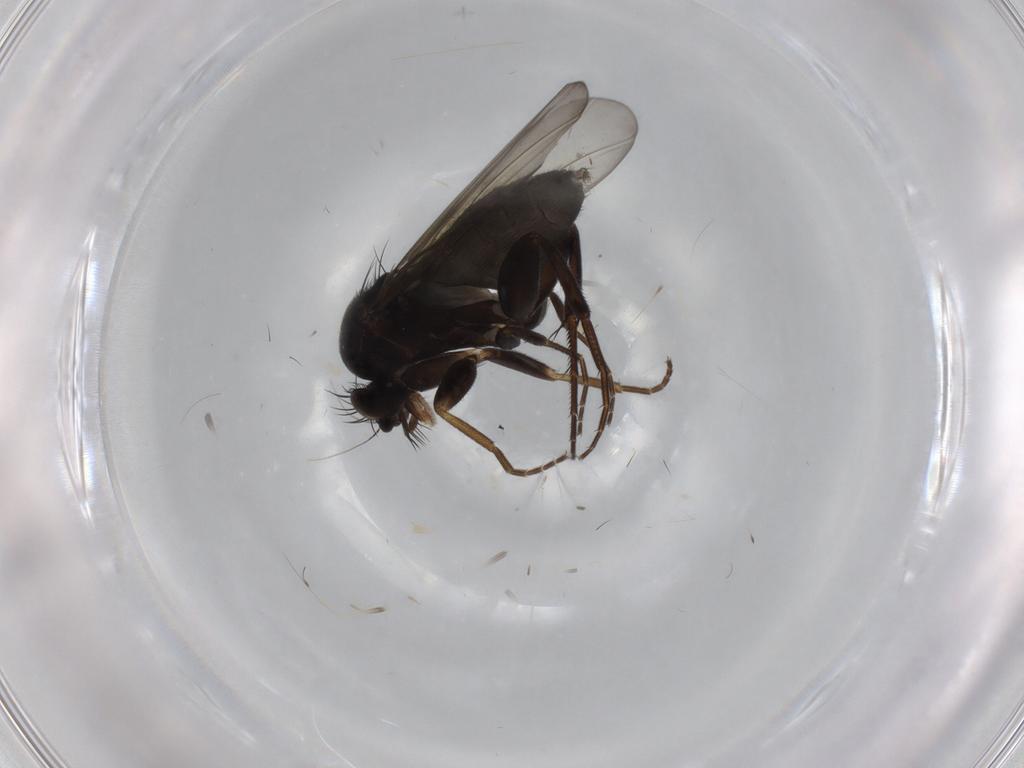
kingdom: Animalia
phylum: Arthropoda
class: Insecta
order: Diptera
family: Phoridae
